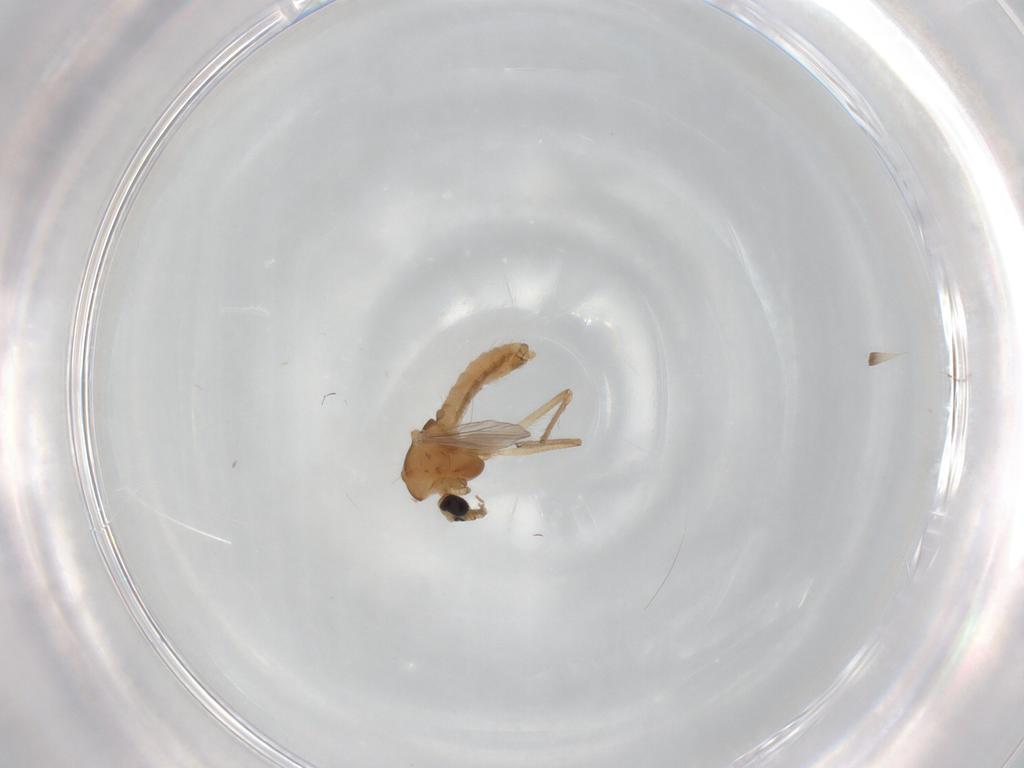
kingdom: Animalia
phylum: Arthropoda
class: Insecta
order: Diptera
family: Chironomidae
